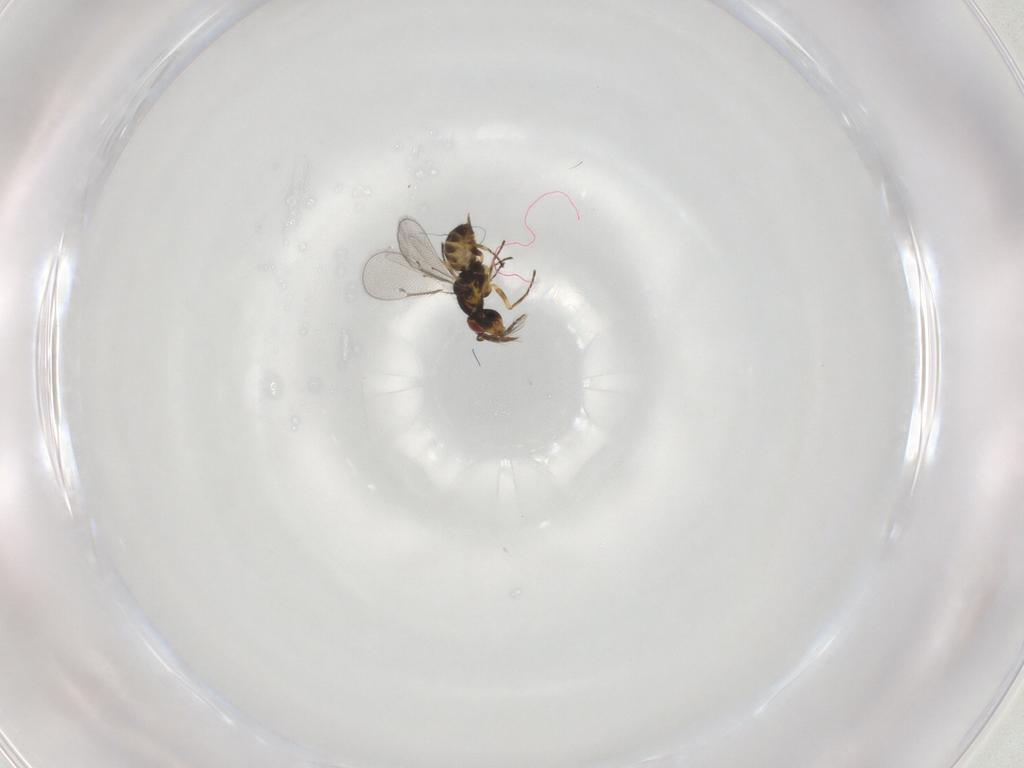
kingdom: Animalia
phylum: Arthropoda
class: Insecta
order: Hymenoptera
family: Eulophidae
